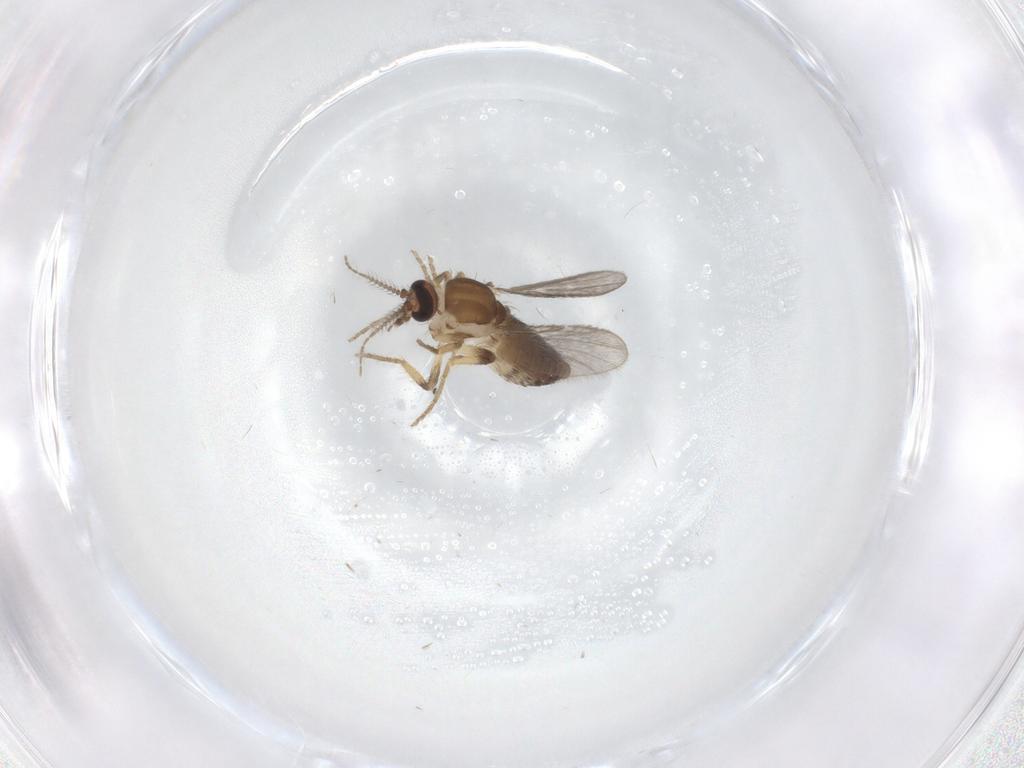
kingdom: Animalia
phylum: Arthropoda
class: Insecta
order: Diptera
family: Ceratopogonidae
